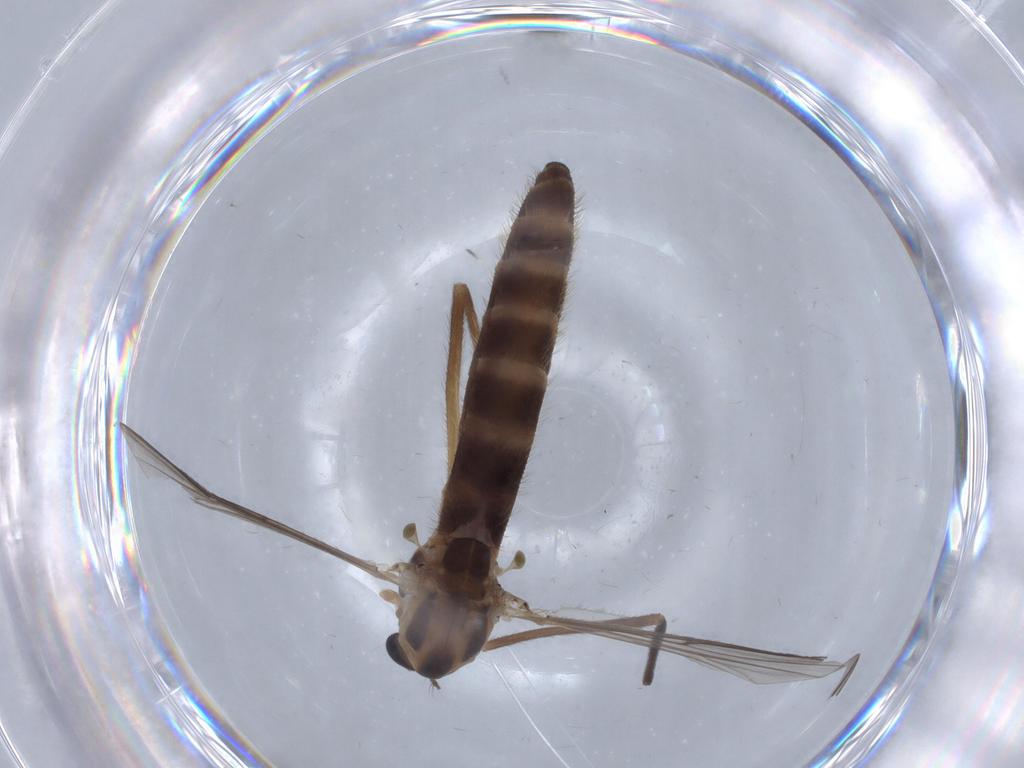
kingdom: Animalia
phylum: Arthropoda
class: Insecta
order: Diptera
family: Chironomidae
